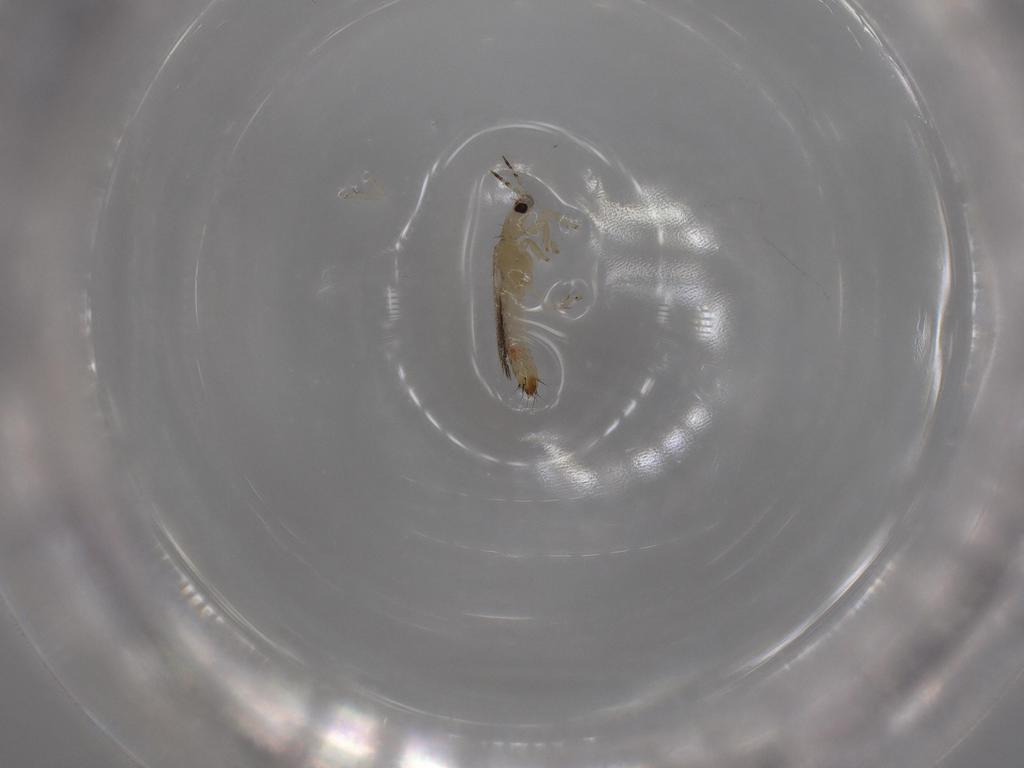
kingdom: Animalia
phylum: Arthropoda
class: Insecta
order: Thysanoptera
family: Thripidae
